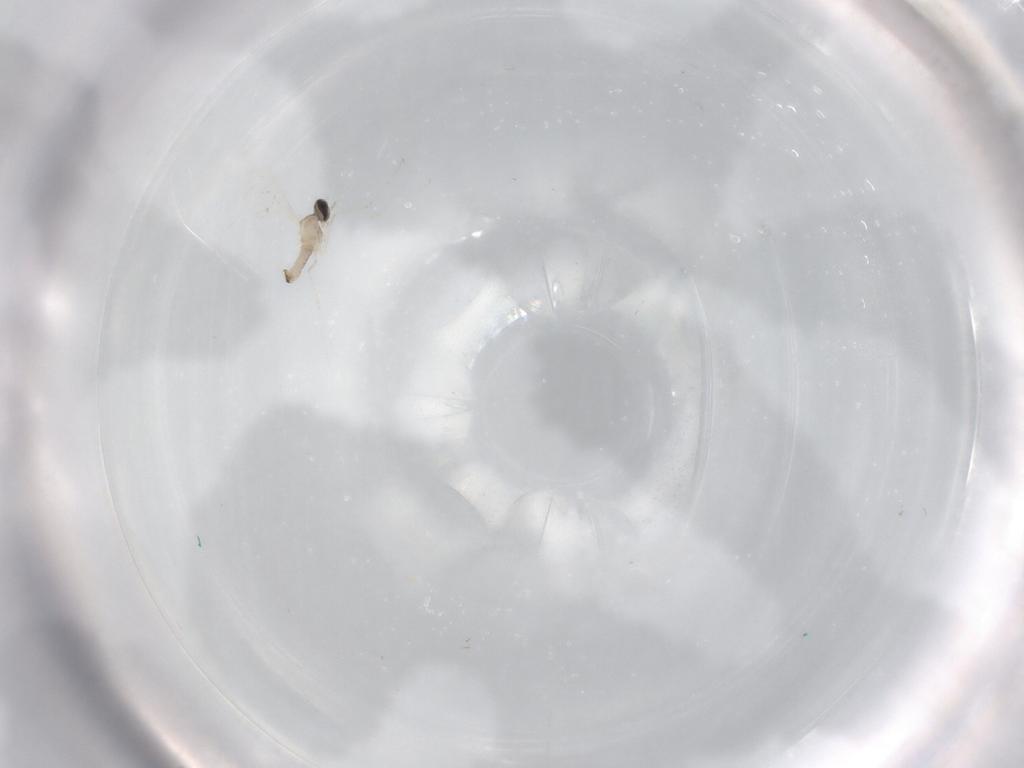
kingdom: Animalia
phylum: Arthropoda
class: Insecta
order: Diptera
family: Cecidomyiidae
